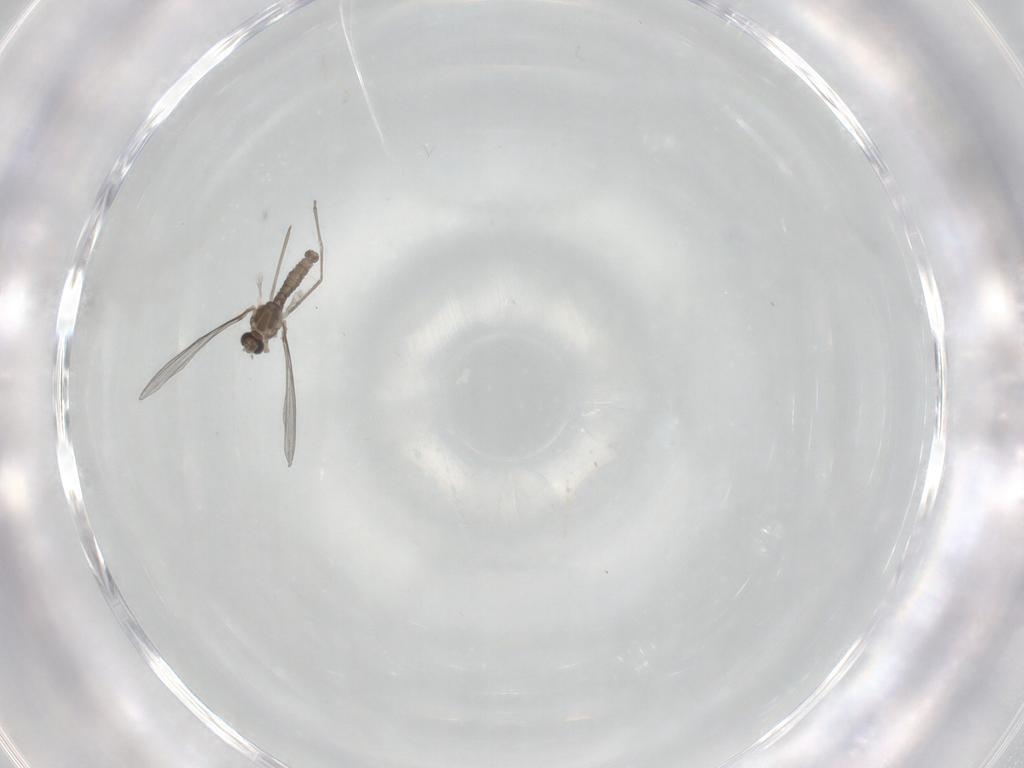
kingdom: Animalia
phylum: Arthropoda
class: Insecta
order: Diptera
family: Cecidomyiidae
